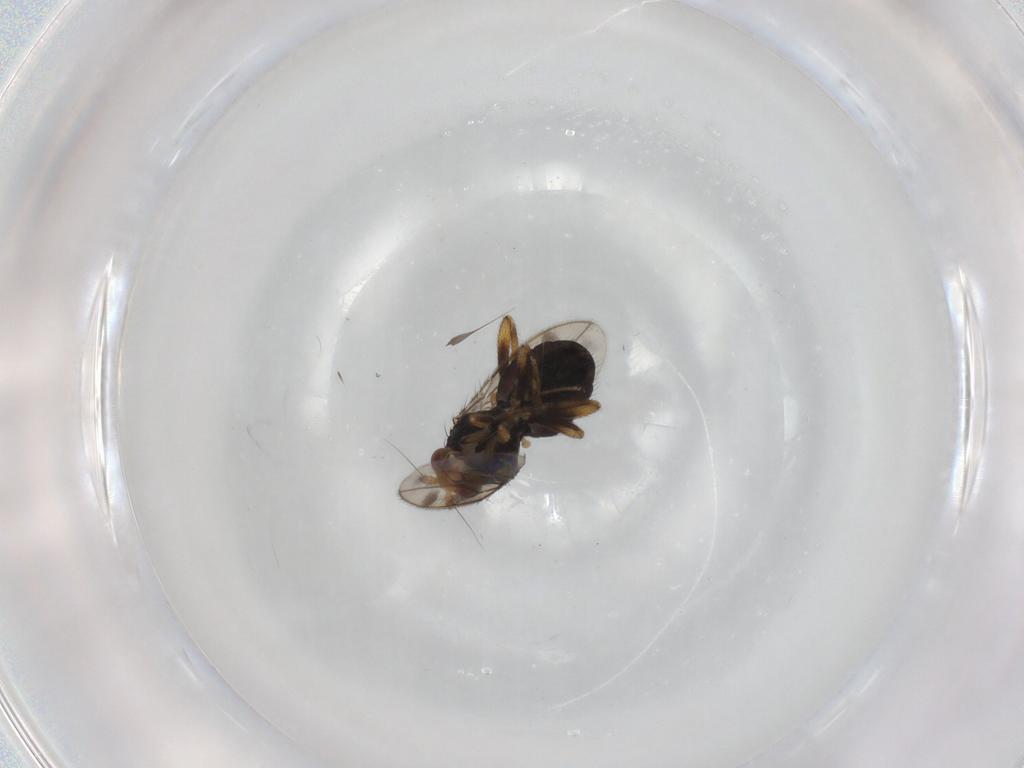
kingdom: Animalia
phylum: Arthropoda
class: Insecta
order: Diptera
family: Sphaeroceridae
